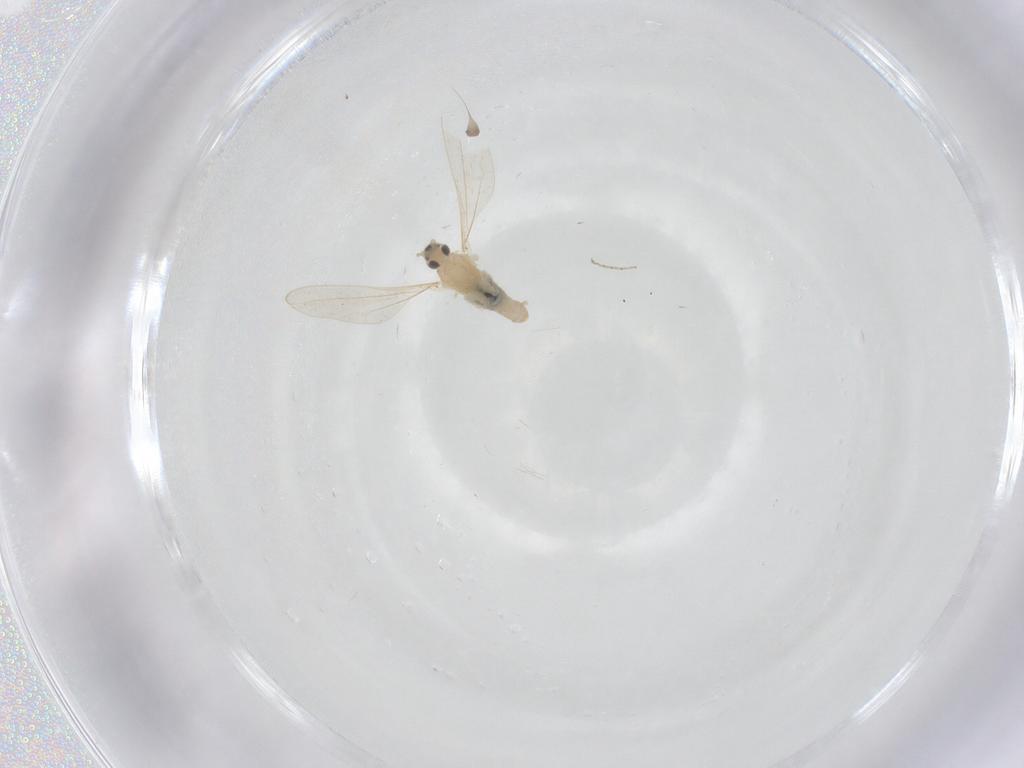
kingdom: Animalia
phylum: Arthropoda
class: Insecta
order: Diptera
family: Cecidomyiidae
